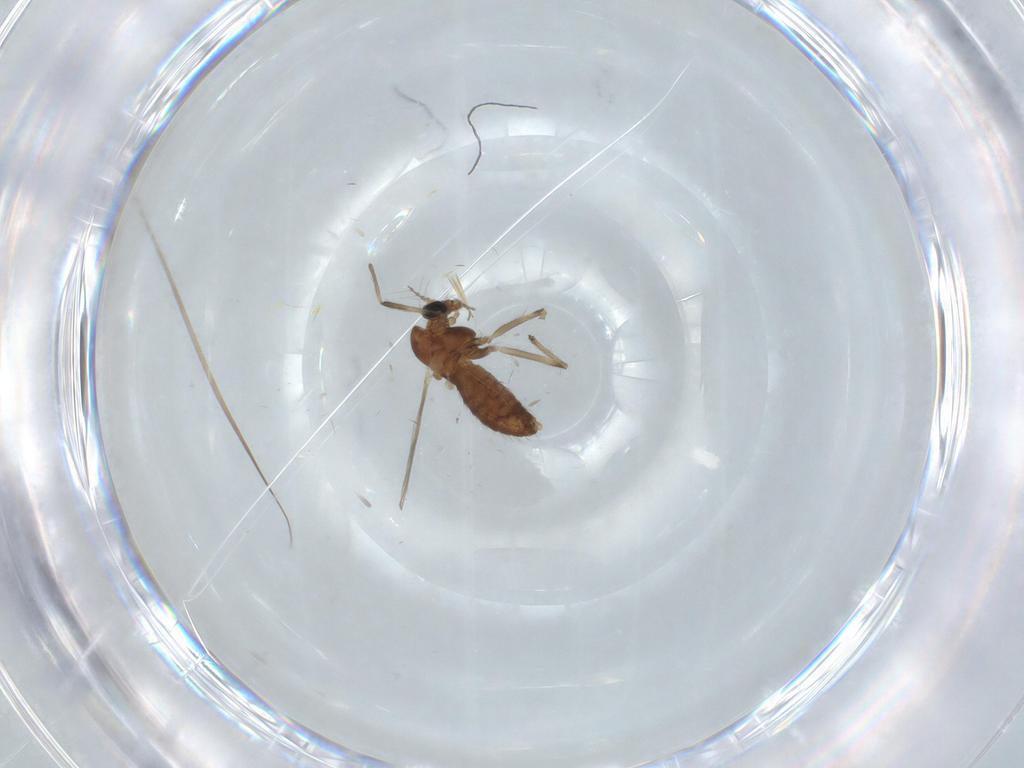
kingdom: Animalia
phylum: Arthropoda
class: Insecta
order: Diptera
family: Chironomidae
